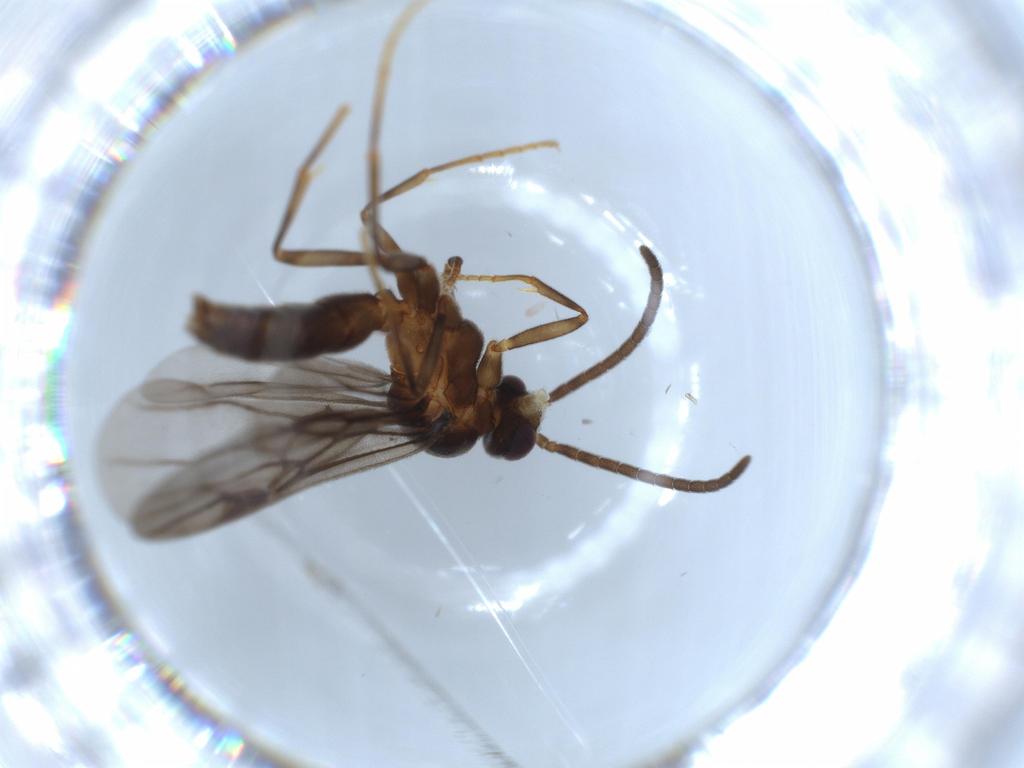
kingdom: Animalia
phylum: Arthropoda
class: Insecta
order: Hymenoptera
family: Formicidae
